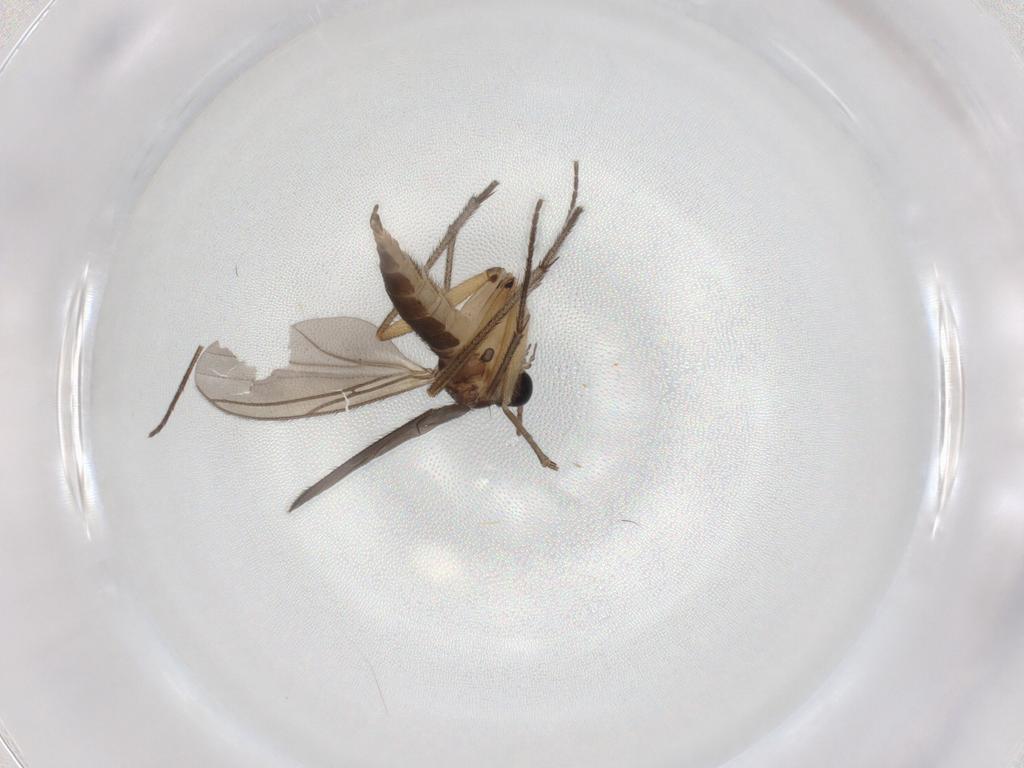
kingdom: Animalia
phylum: Arthropoda
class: Insecta
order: Diptera
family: Sciaridae
